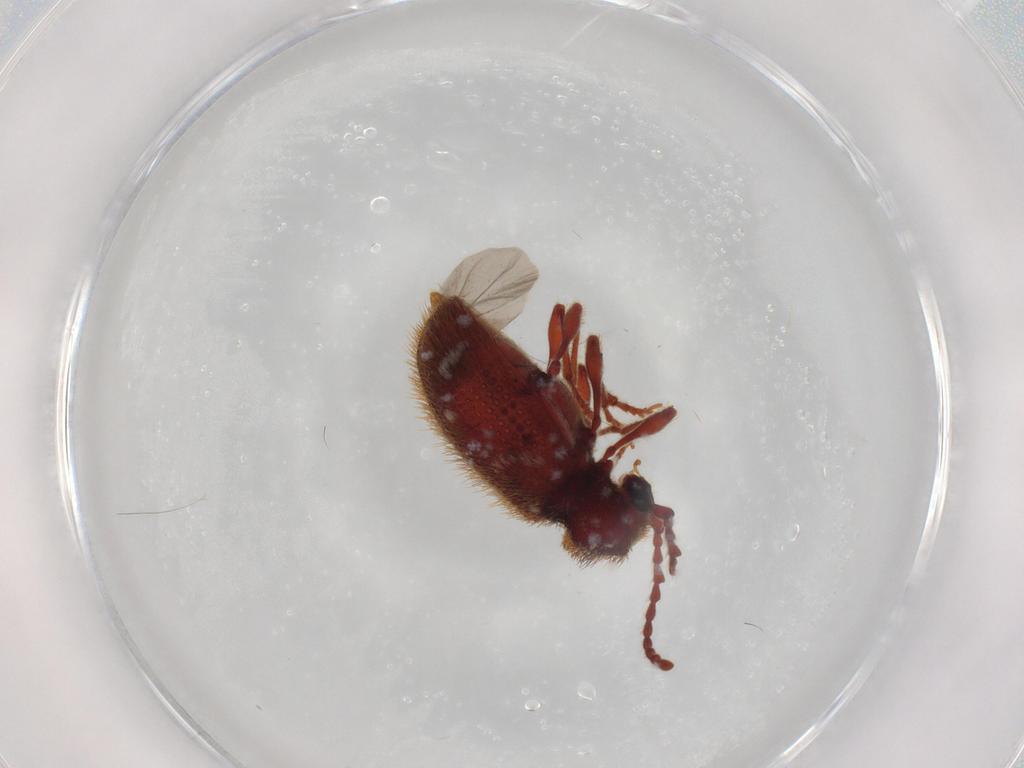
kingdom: Animalia
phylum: Arthropoda
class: Insecta
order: Coleoptera
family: Ptinidae
